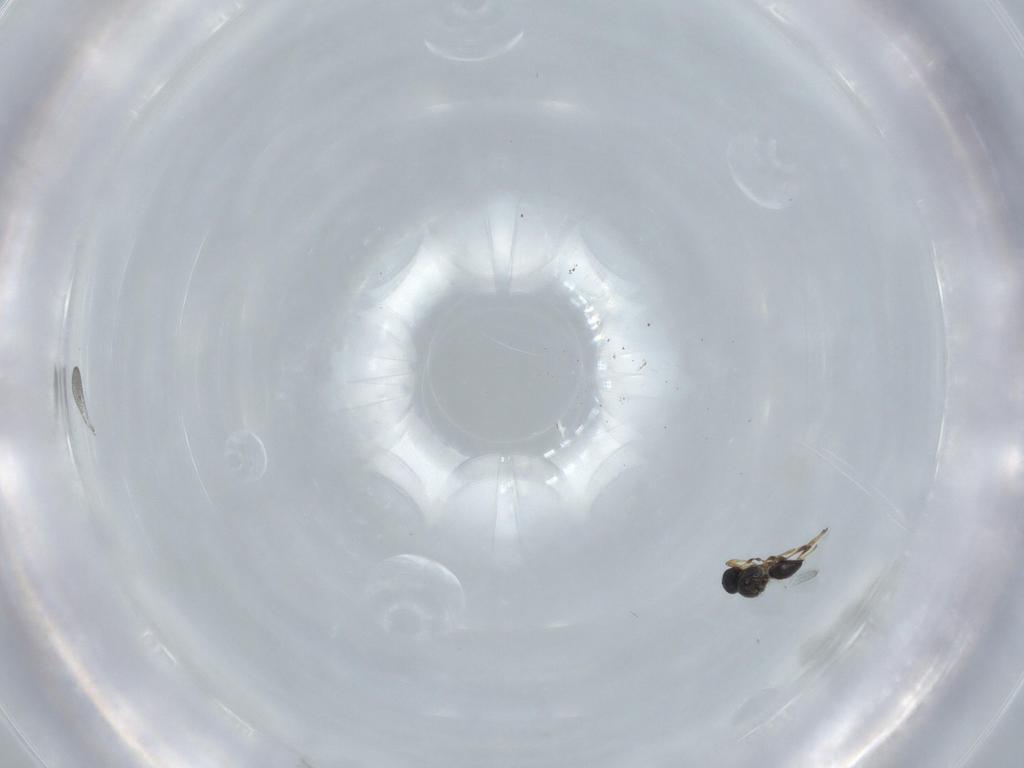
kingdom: Animalia
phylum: Arthropoda
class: Insecta
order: Hymenoptera
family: Diapriidae
